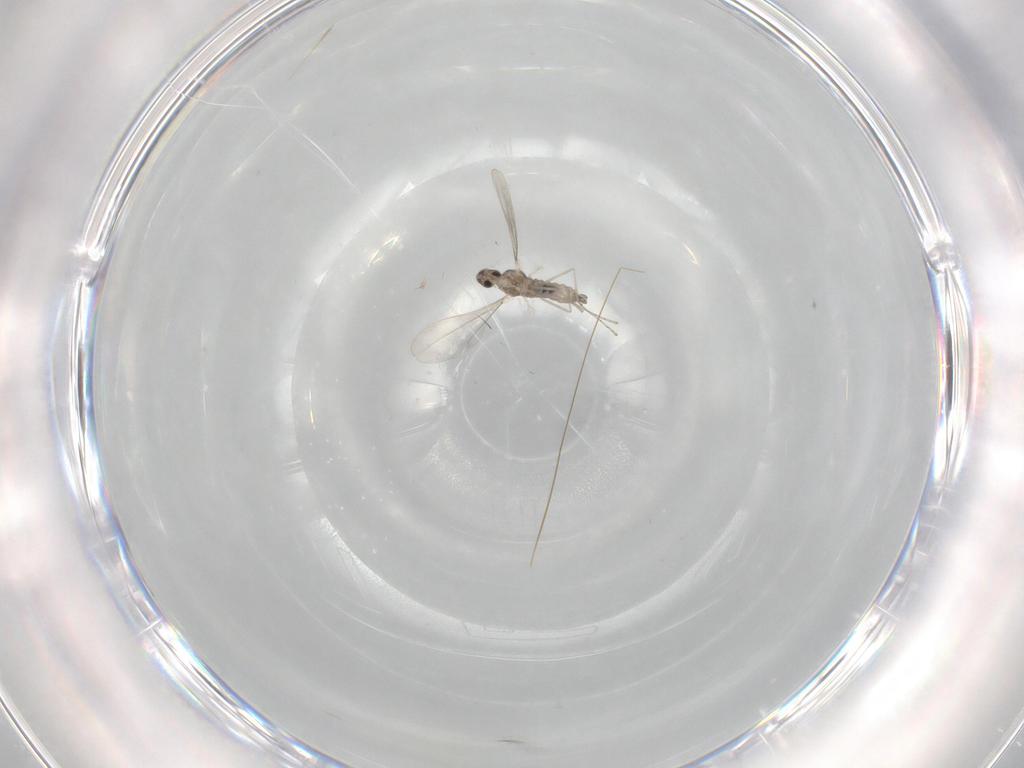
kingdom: Animalia
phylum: Arthropoda
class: Insecta
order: Diptera
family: Cecidomyiidae
